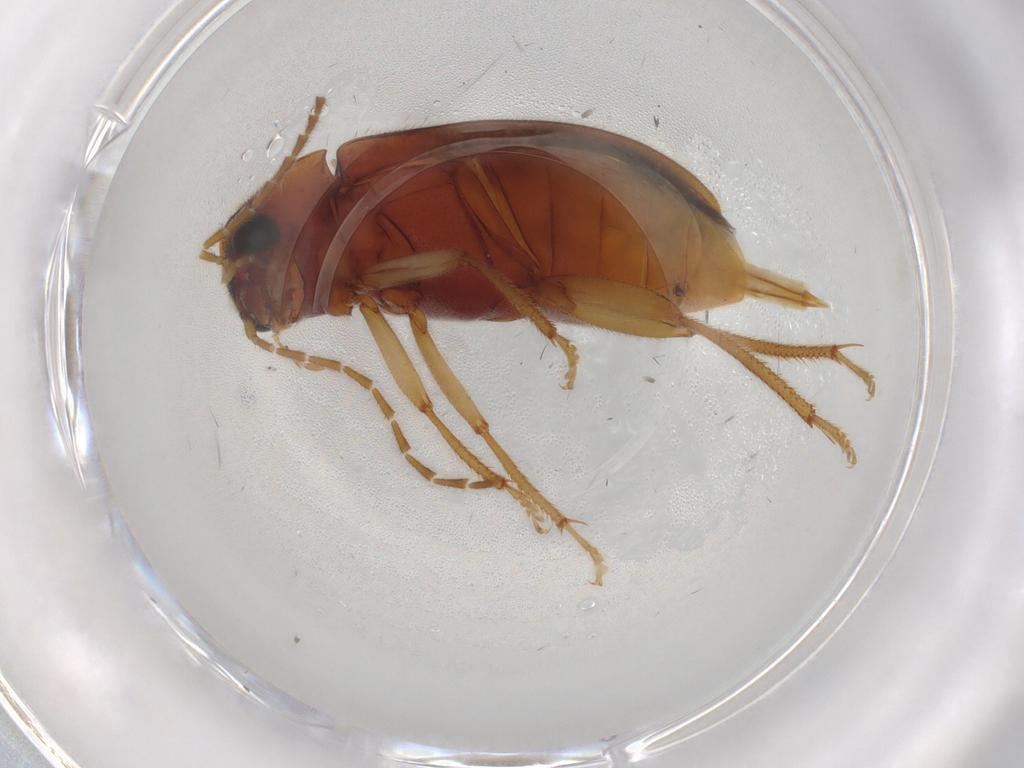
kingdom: Animalia
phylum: Arthropoda
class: Insecta
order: Coleoptera
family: Ptilodactylidae
